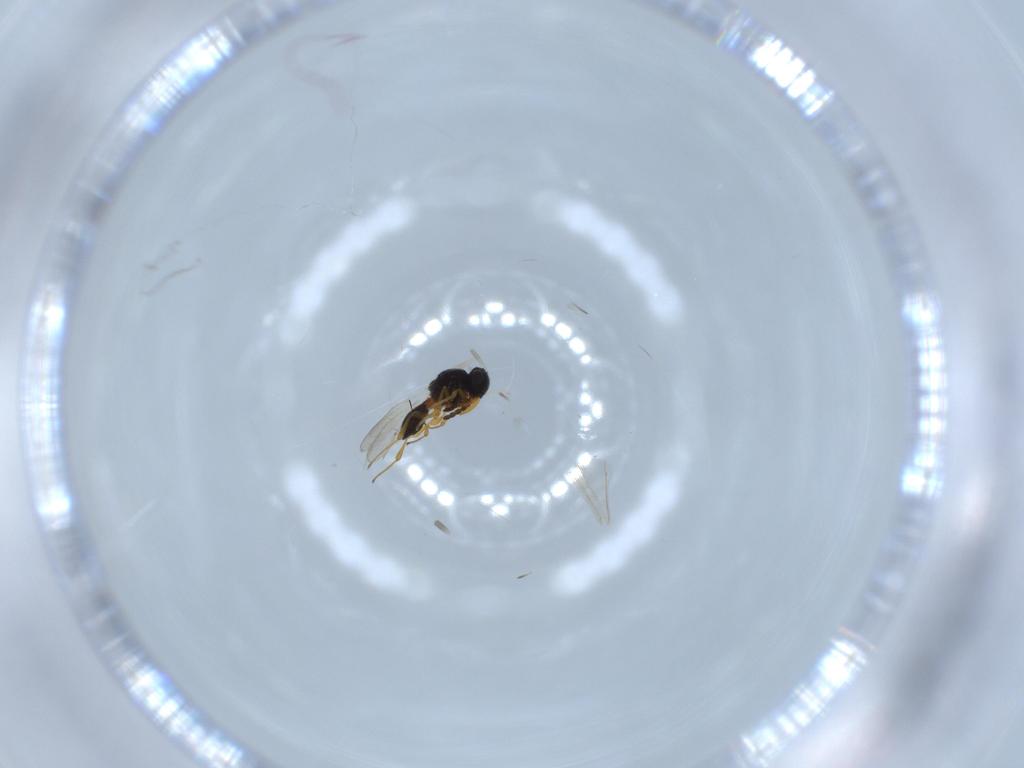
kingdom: Animalia
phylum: Arthropoda
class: Insecta
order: Hymenoptera
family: Platygastridae
